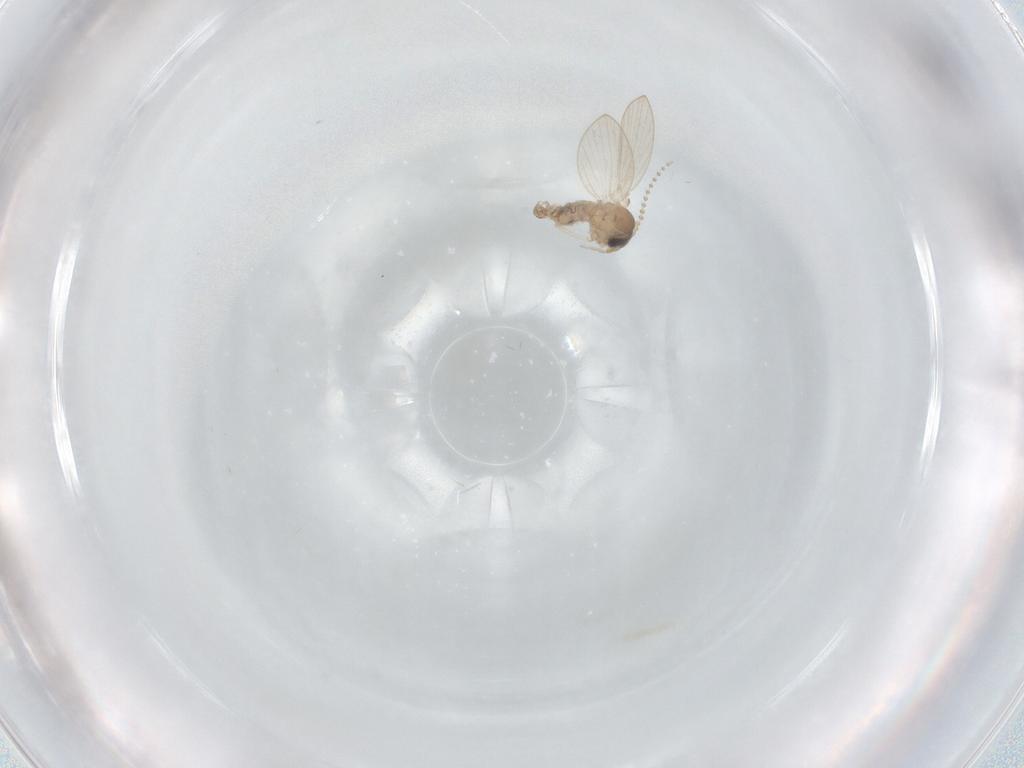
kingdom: Animalia
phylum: Arthropoda
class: Insecta
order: Diptera
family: Psychodidae
